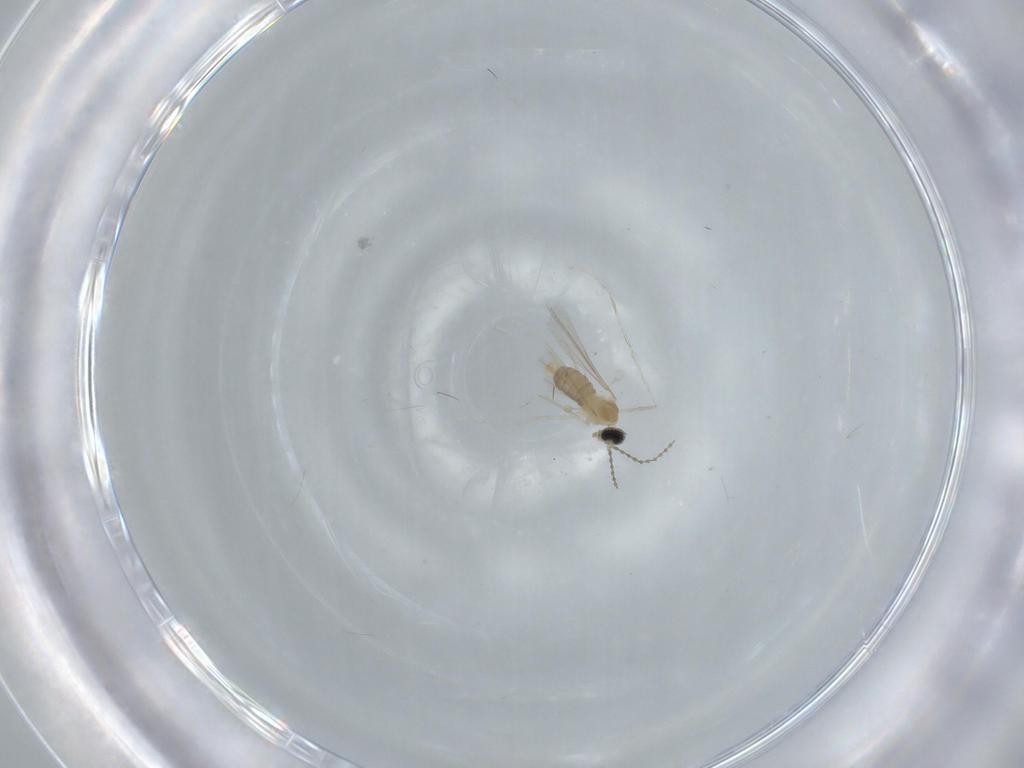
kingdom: Animalia
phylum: Arthropoda
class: Insecta
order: Diptera
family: Cecidomyiidae
